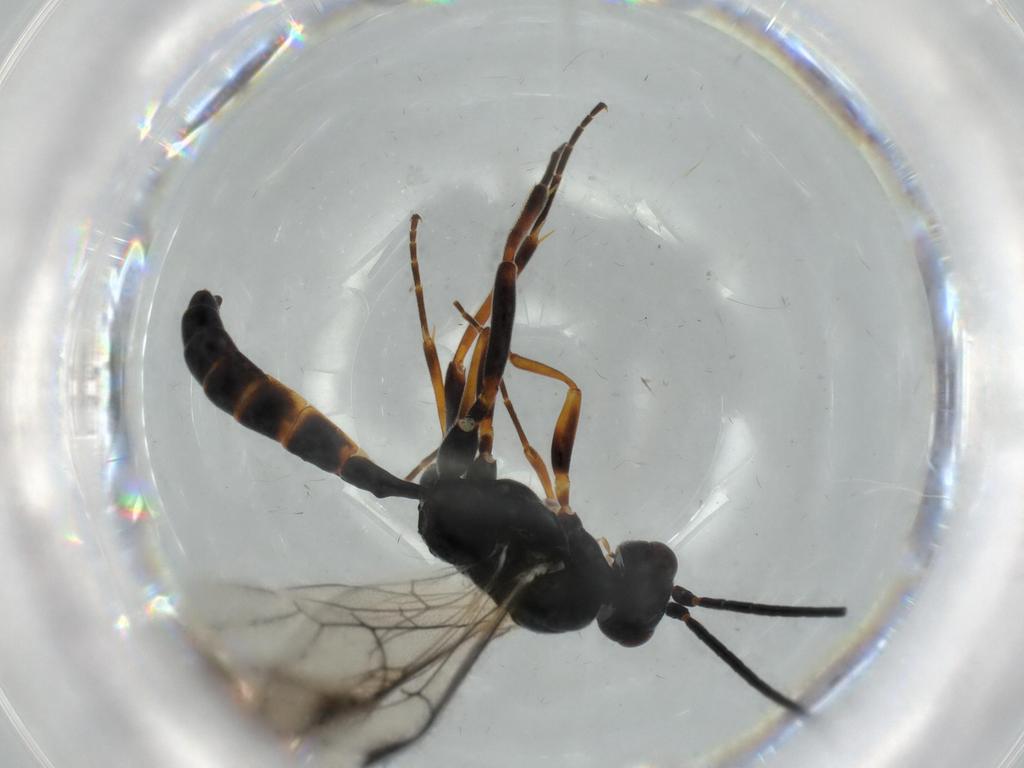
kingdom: Animalia
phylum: Arthropoda
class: Insecta
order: Hymenoptera
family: Ichneumonidae
